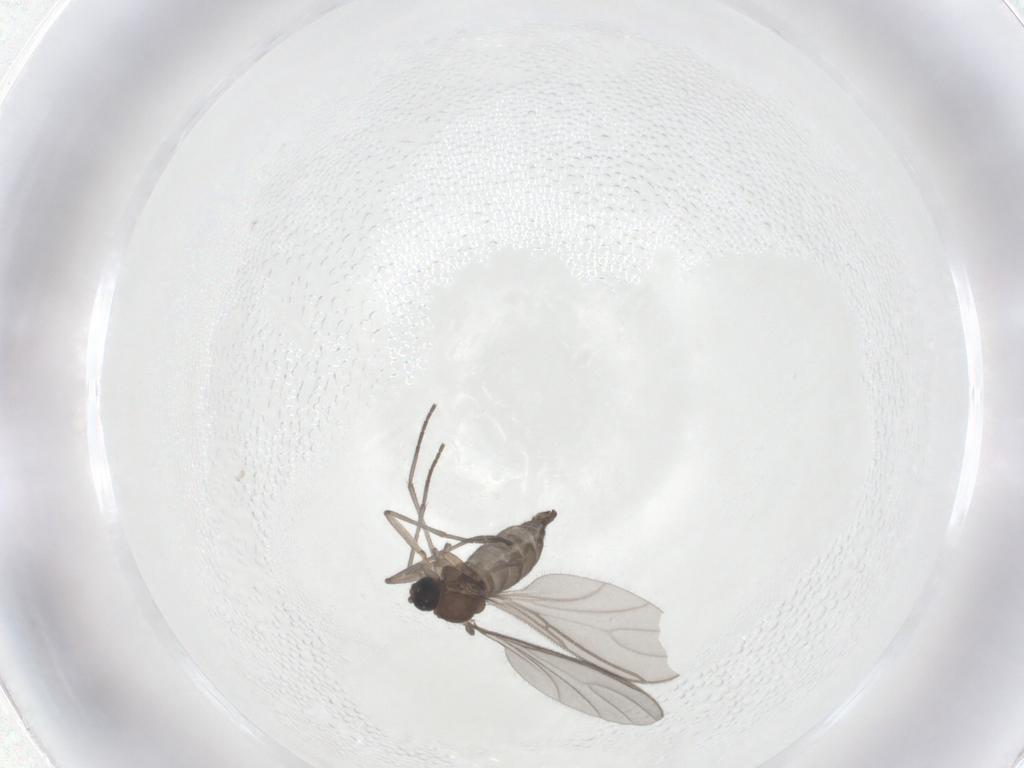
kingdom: Animalia
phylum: Arthropoda
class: Insecta
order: Diptera
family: Sciaridae
